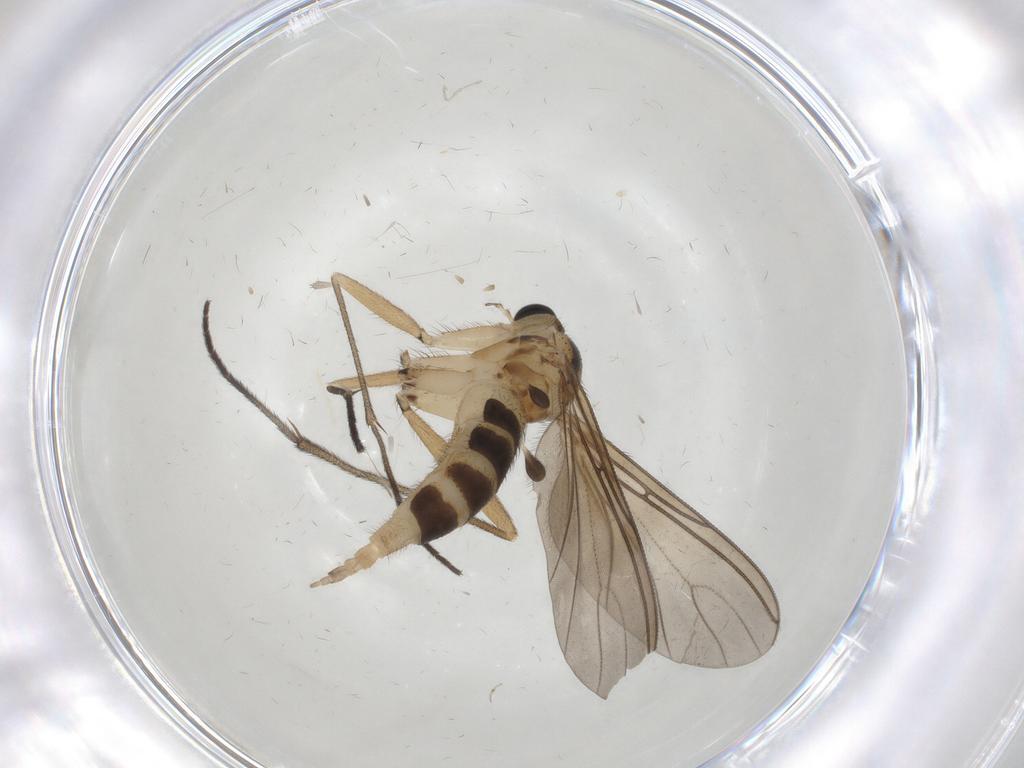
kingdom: Animalia
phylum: Arthropoda
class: Insecta
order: Diptera
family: Sciaridae
